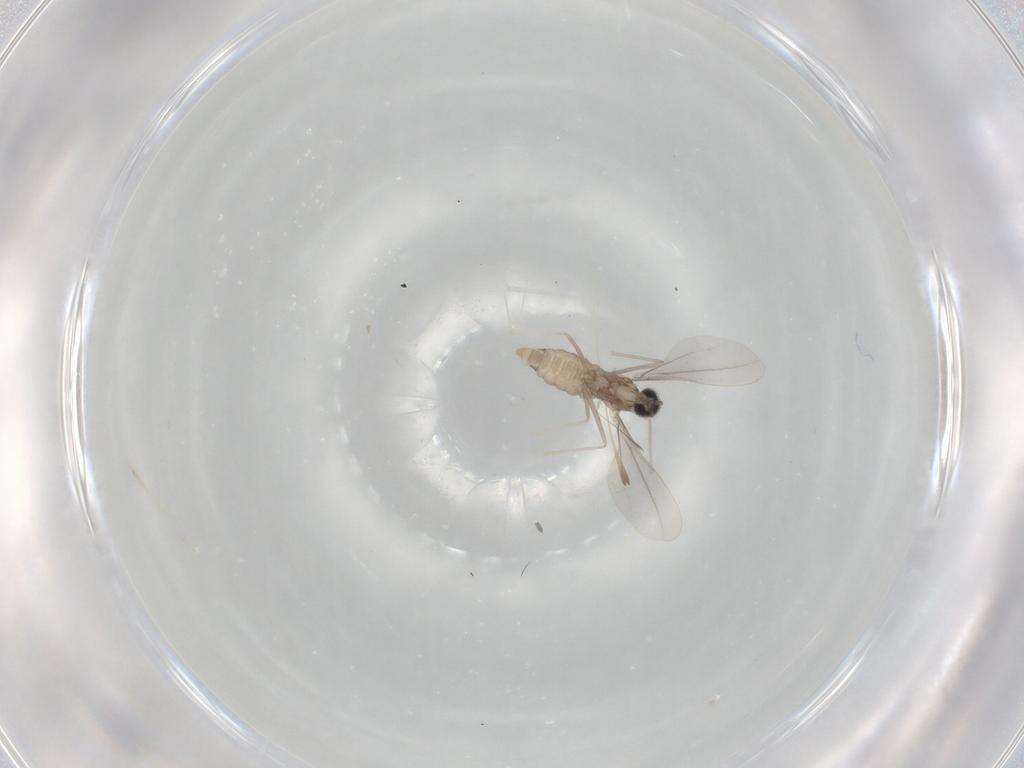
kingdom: Animalia
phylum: Arthropoda
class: Insecta
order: Diptera
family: Cecidomyiidae
